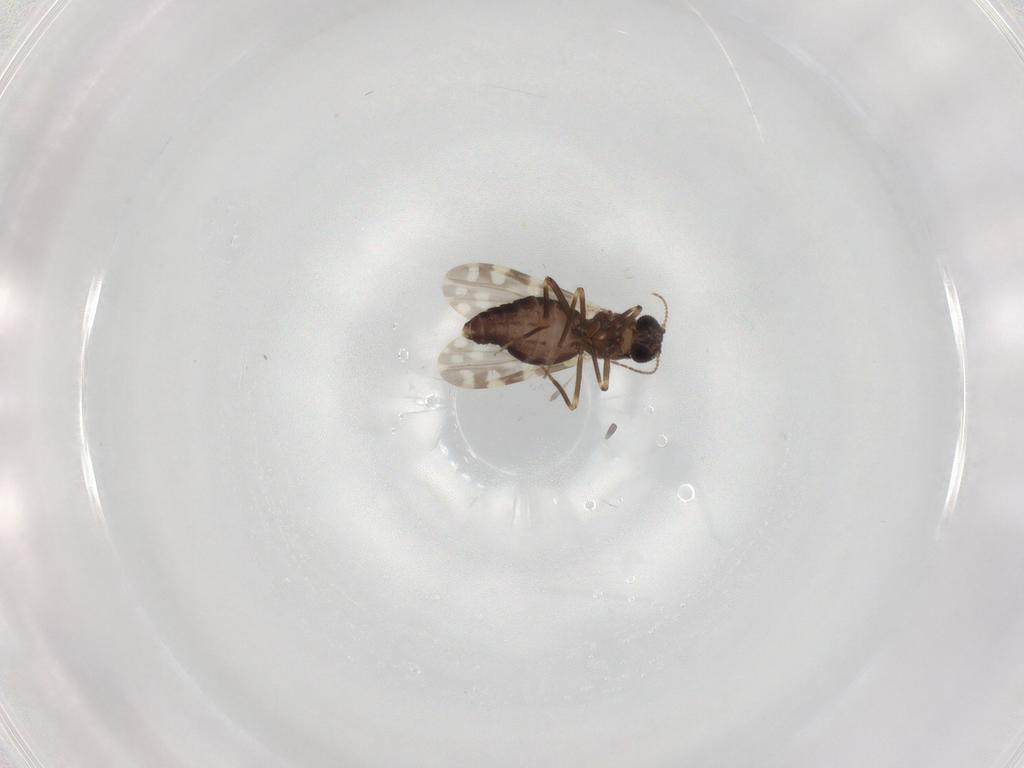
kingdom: Animalia
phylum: Arthropoda
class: Insecta
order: Diptera
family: Ceratopogonidae
